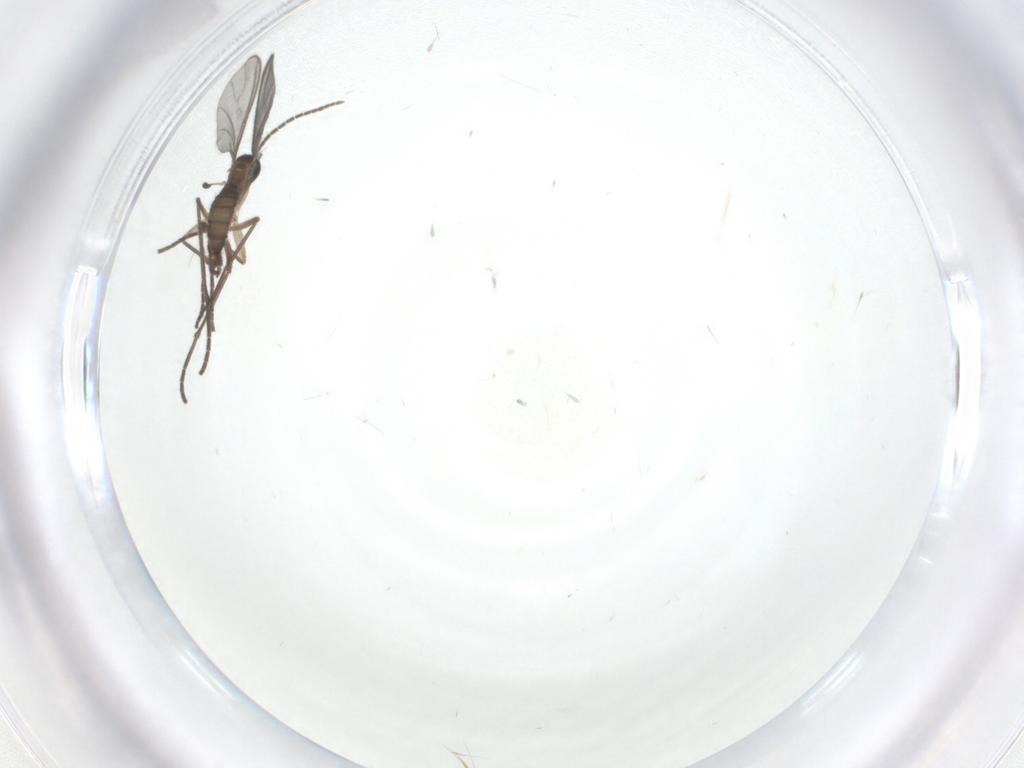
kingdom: Animalia
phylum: Arthropoda
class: Insecta
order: Diptera
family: Sciaridae
